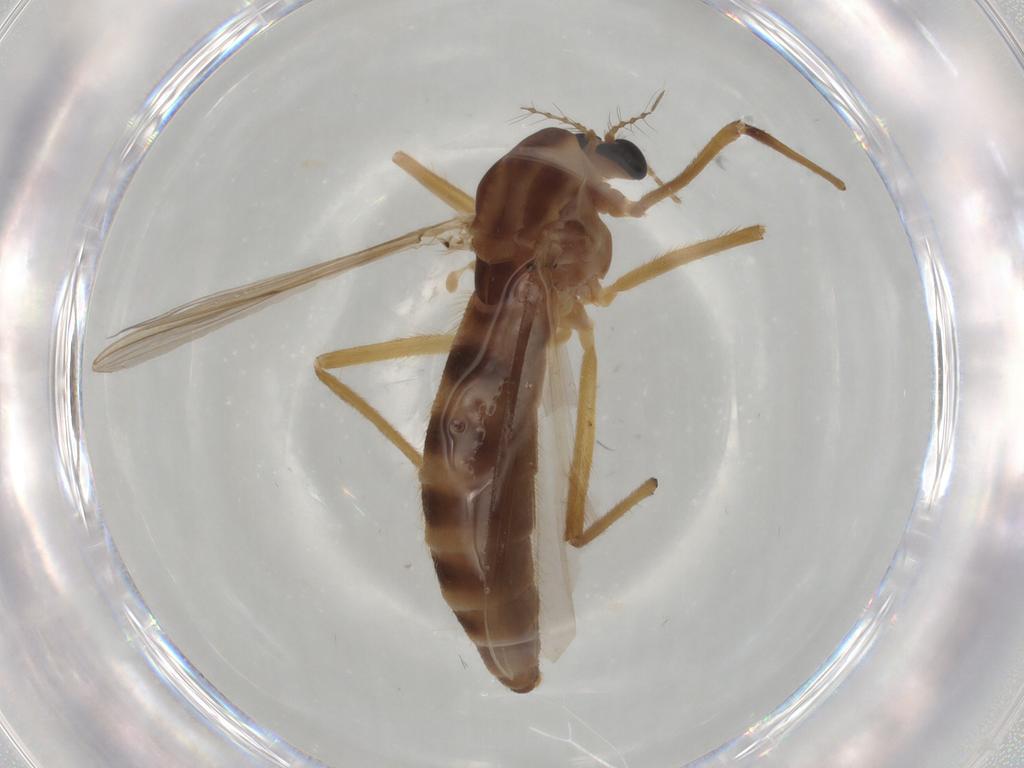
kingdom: Animalia
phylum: Arthropoda
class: Insecta
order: Diptera
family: Chironomidae
